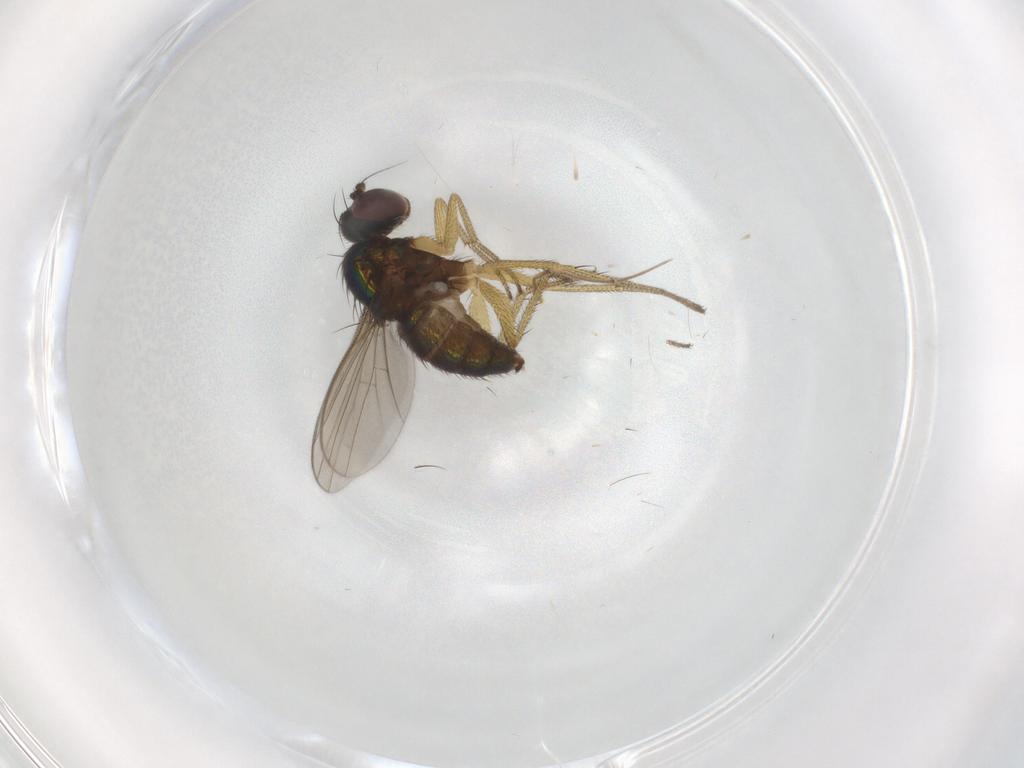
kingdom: Animalia
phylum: Arthropoda
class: Insecta
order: Diptera
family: Dolichopodidae
